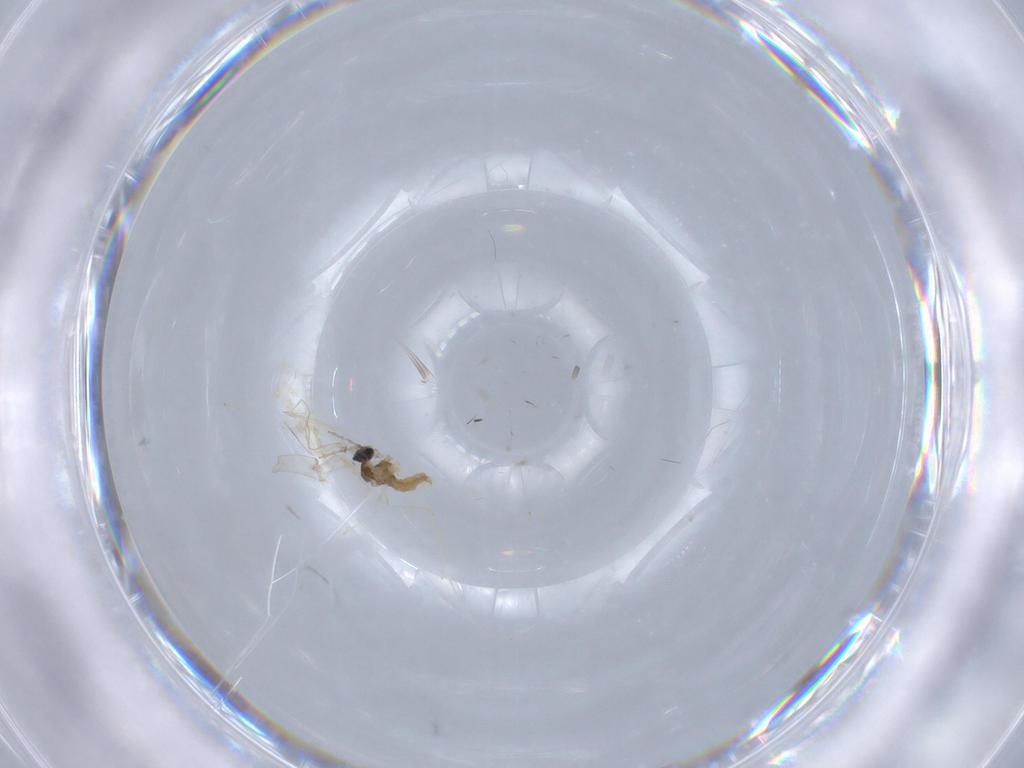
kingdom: Animalia
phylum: Arthropoda
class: Insecta
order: Diptera
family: Cecidomyiidae
